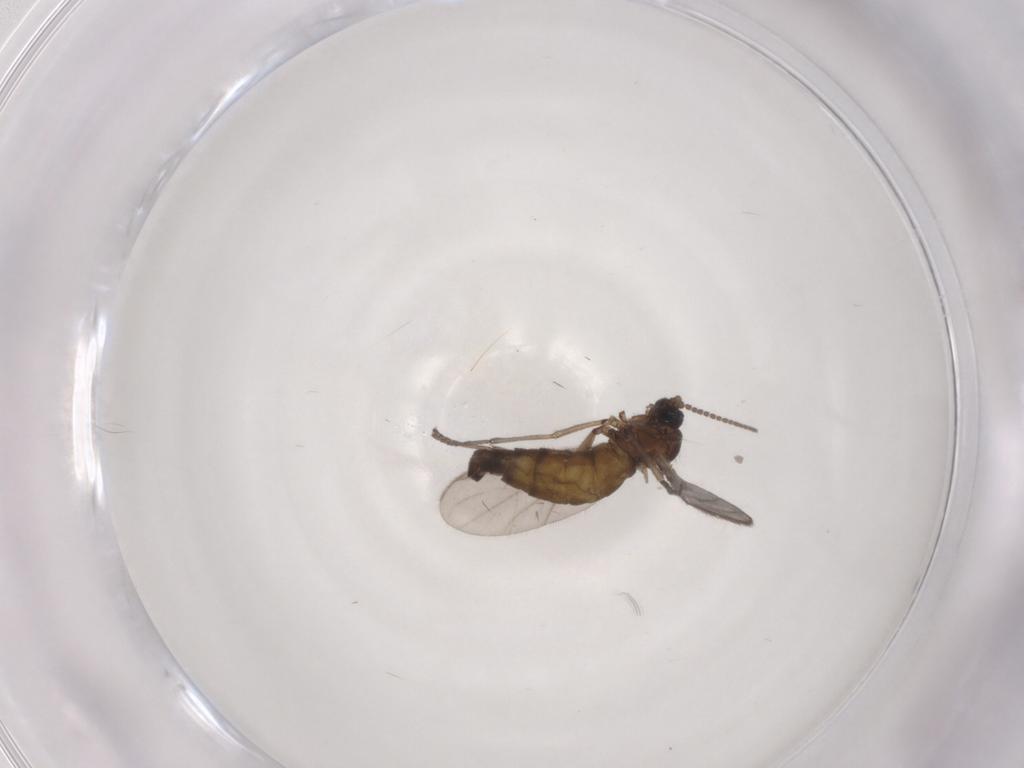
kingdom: Animalia
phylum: Arthropoda
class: Insecta
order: Diptera
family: Sciaridae
